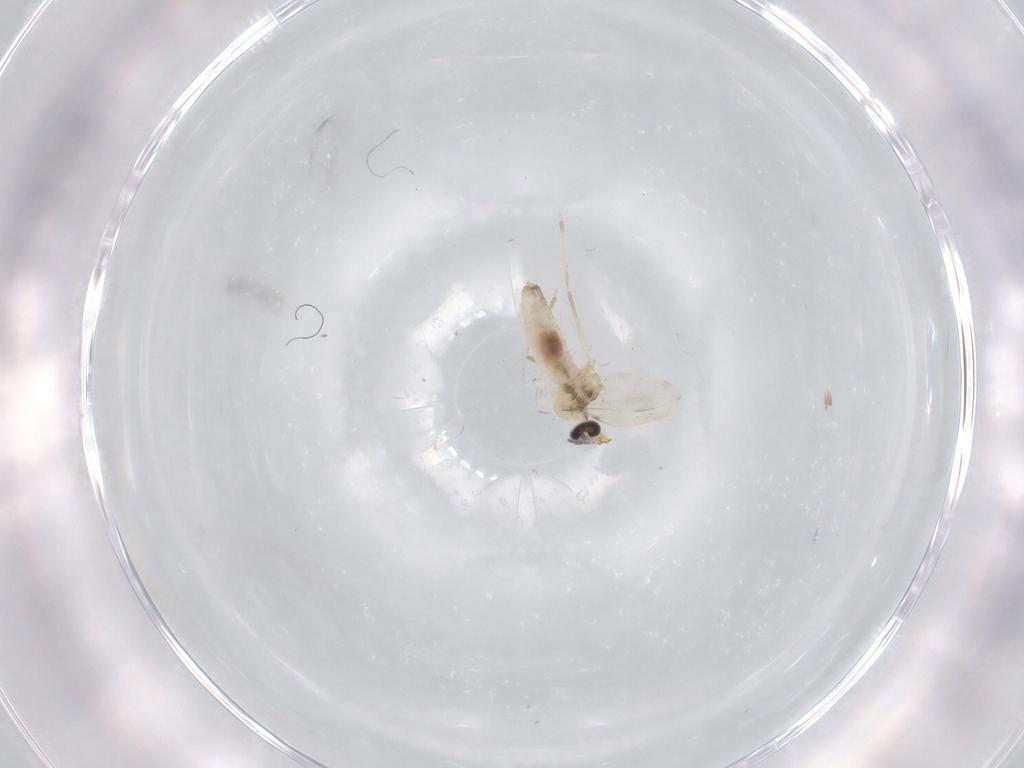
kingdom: Animalia
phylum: Arthropoda
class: Insecta
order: Diptera
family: Cecidomyiidae
